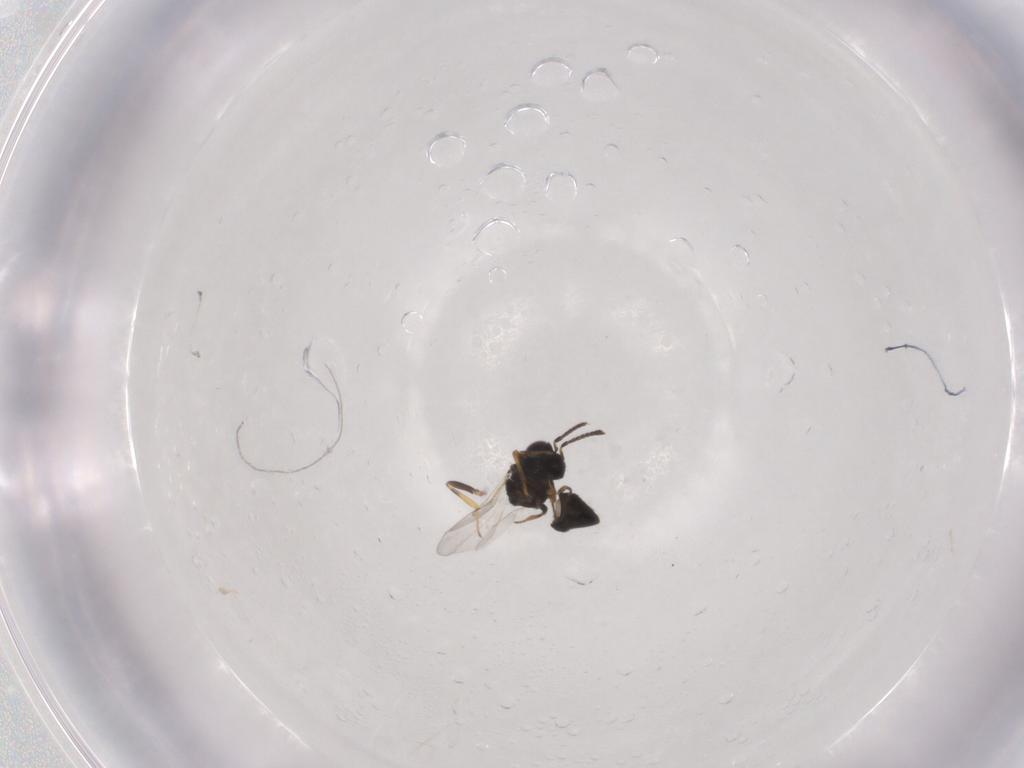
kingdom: Animalia
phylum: Arthropoda
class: Insecta
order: Hymenoptera
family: Encyrtidae
